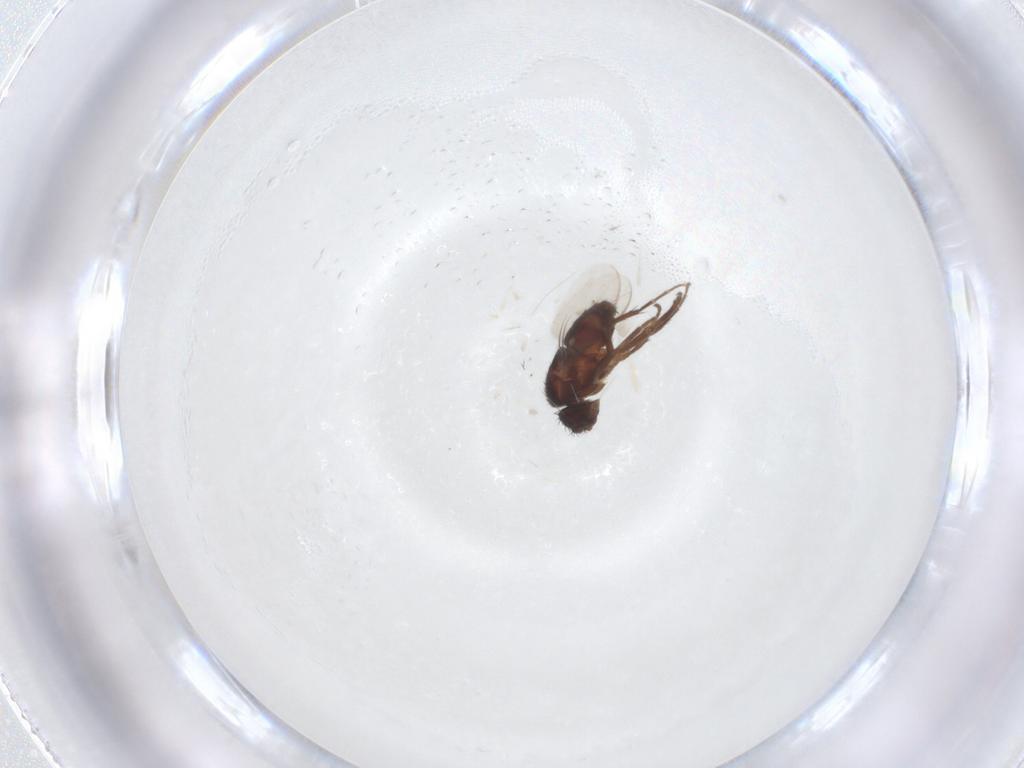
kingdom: Animalia
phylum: Arthropoda
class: Insecta
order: Diptera
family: Sphaeroceridae
